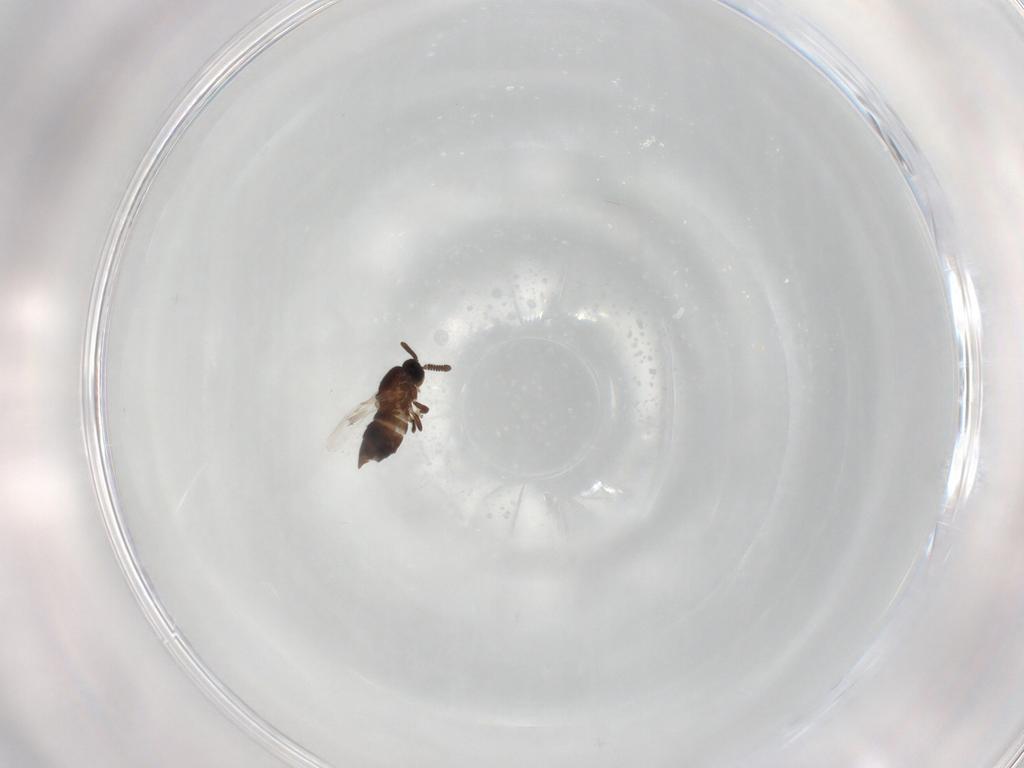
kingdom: Animalia
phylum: Arthropoda
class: Insecta
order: Diptera
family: Scatopsidae
